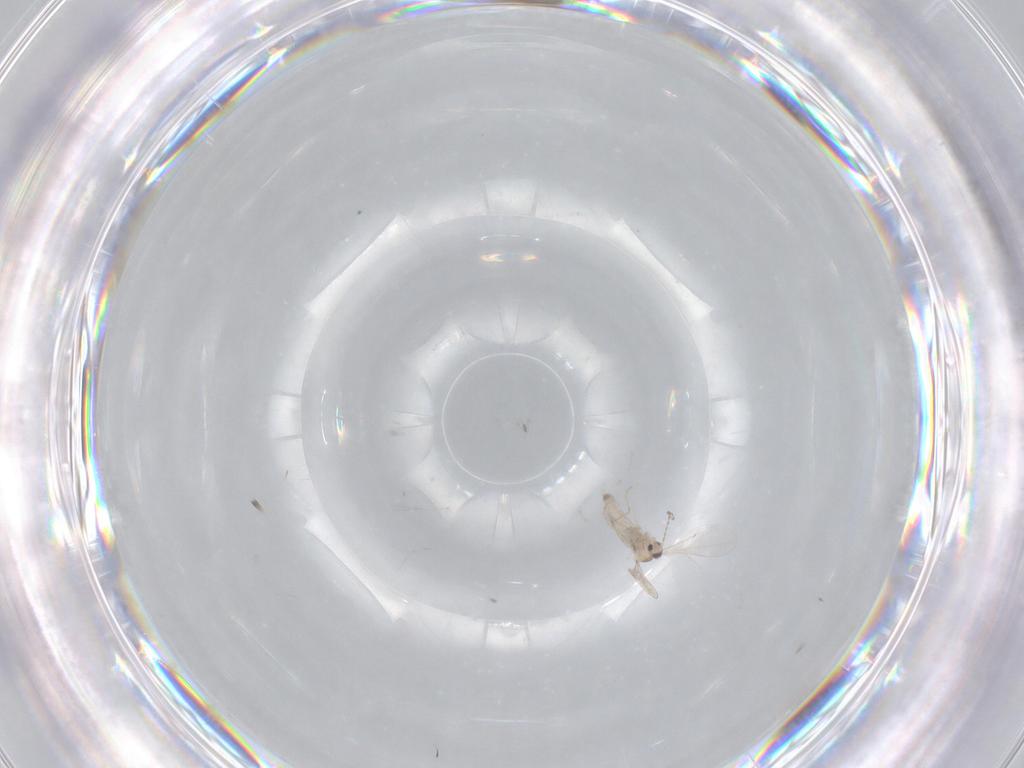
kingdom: Animalia
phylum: Arthropoda
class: Insecta
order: Diptera
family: Cecidomyiidae
